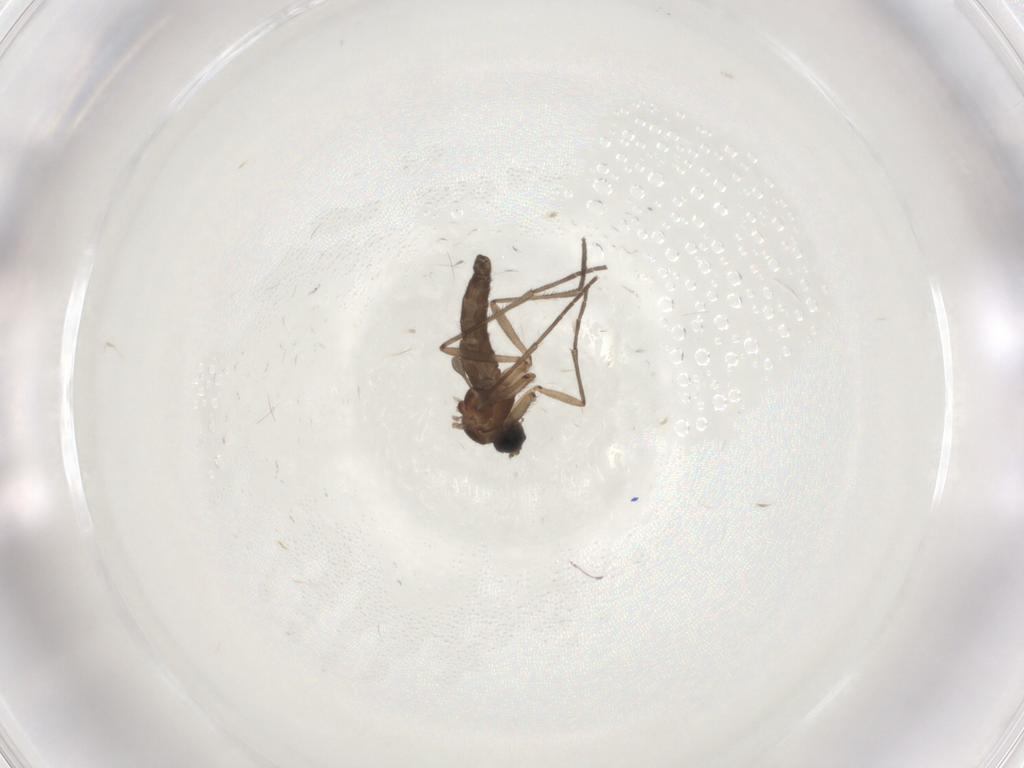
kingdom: Animalia
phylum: Arthropoda
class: Insecta
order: Diptera
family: Sciaridae
